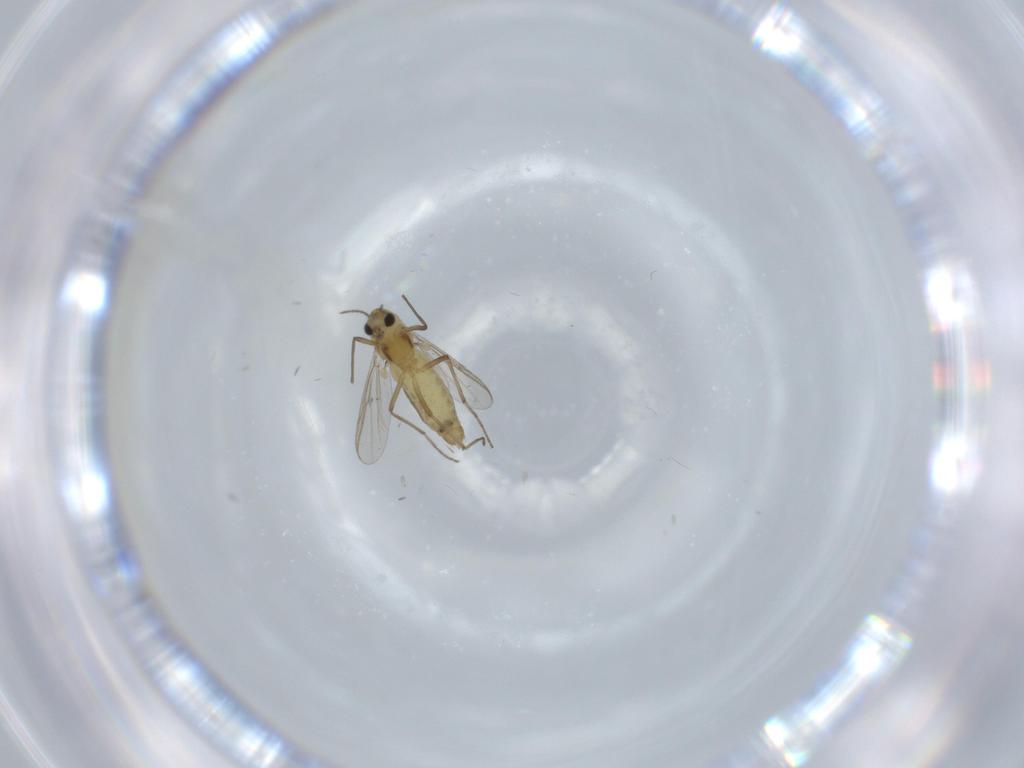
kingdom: Animalia
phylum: Arthropoda
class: Insecta
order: Diptera
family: Chironomidae
